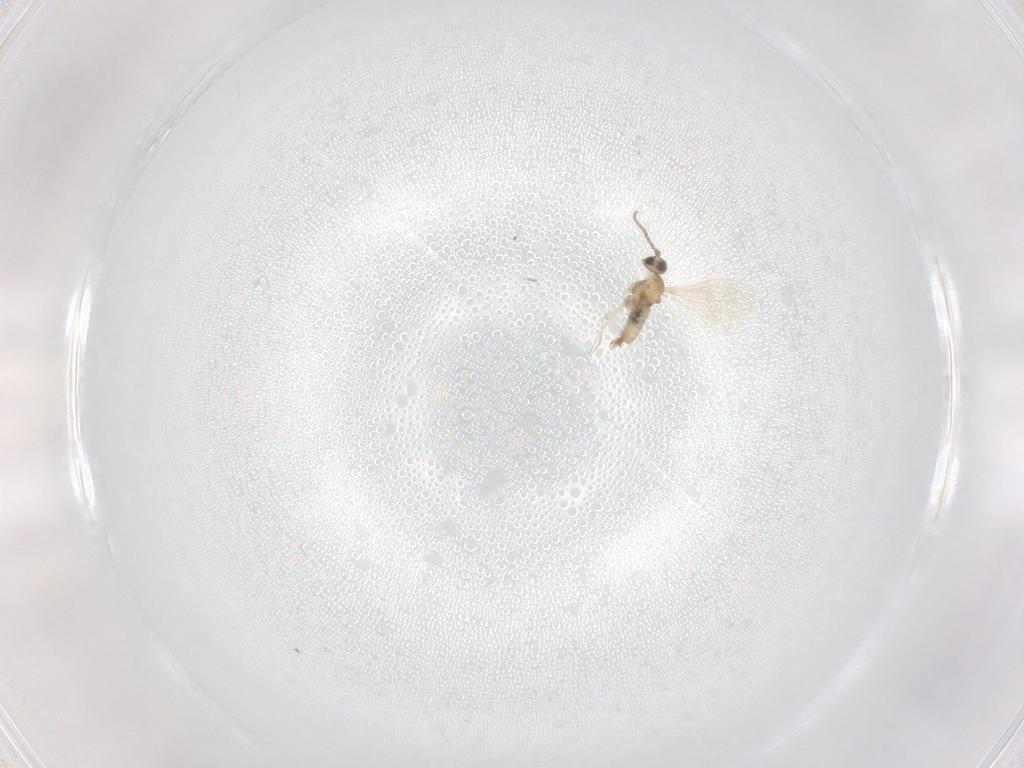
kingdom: Animalia
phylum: Arthropoda
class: Insecta
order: Diptera
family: Cecidomyiidae
